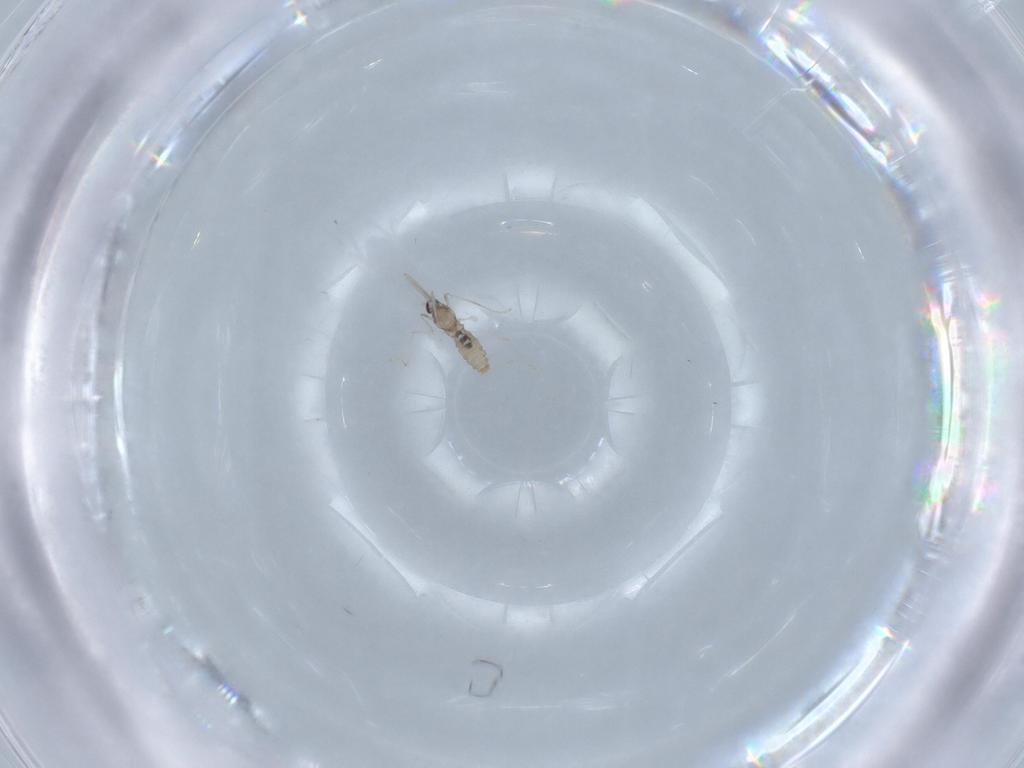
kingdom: Animalia
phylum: Arthropoda
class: Insecta
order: Diptera
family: Cecidomyiidae
